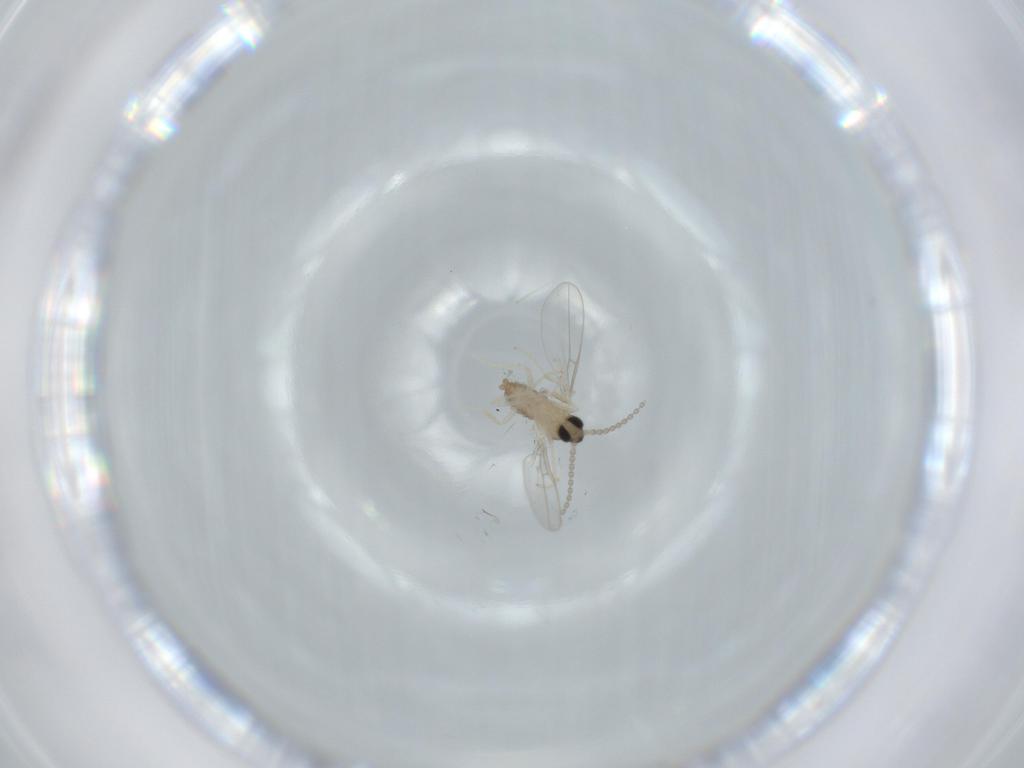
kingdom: Animalia
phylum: Arthropoda
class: Insecta
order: Diptera
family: Cecidomyiidae
